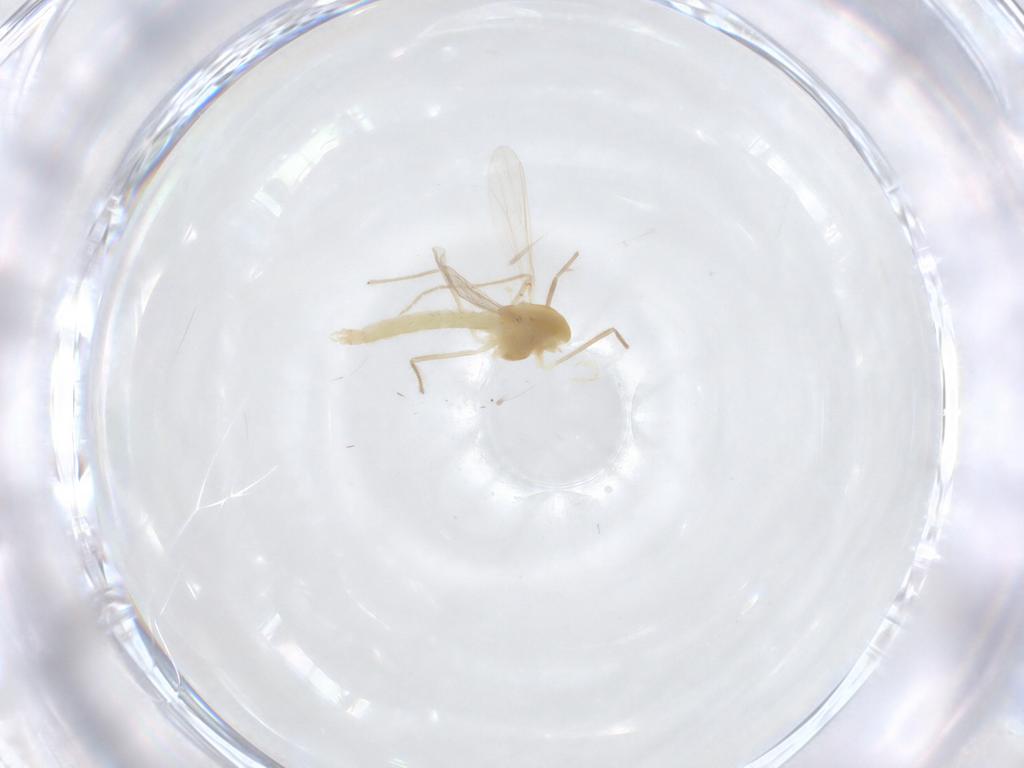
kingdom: Animalia
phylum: Arthropoda
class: Insecta
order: Diptera
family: Chironomidae
